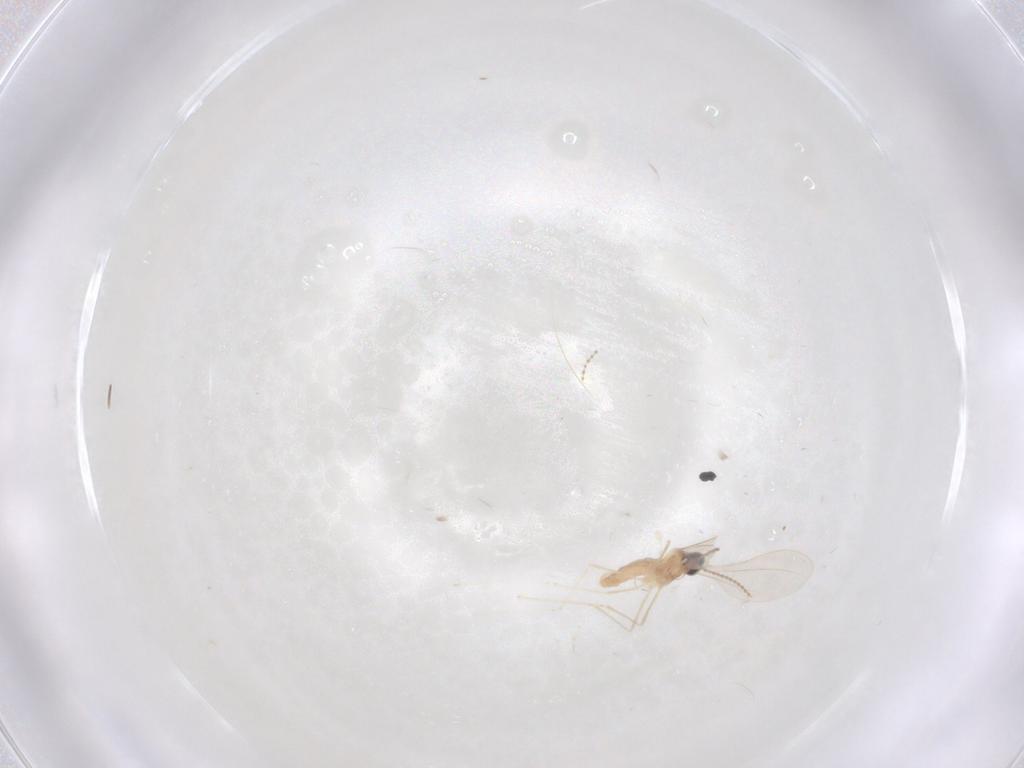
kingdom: Animalia
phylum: Arthropoda
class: Insecta
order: Diptera
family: Cecidomyiidae
